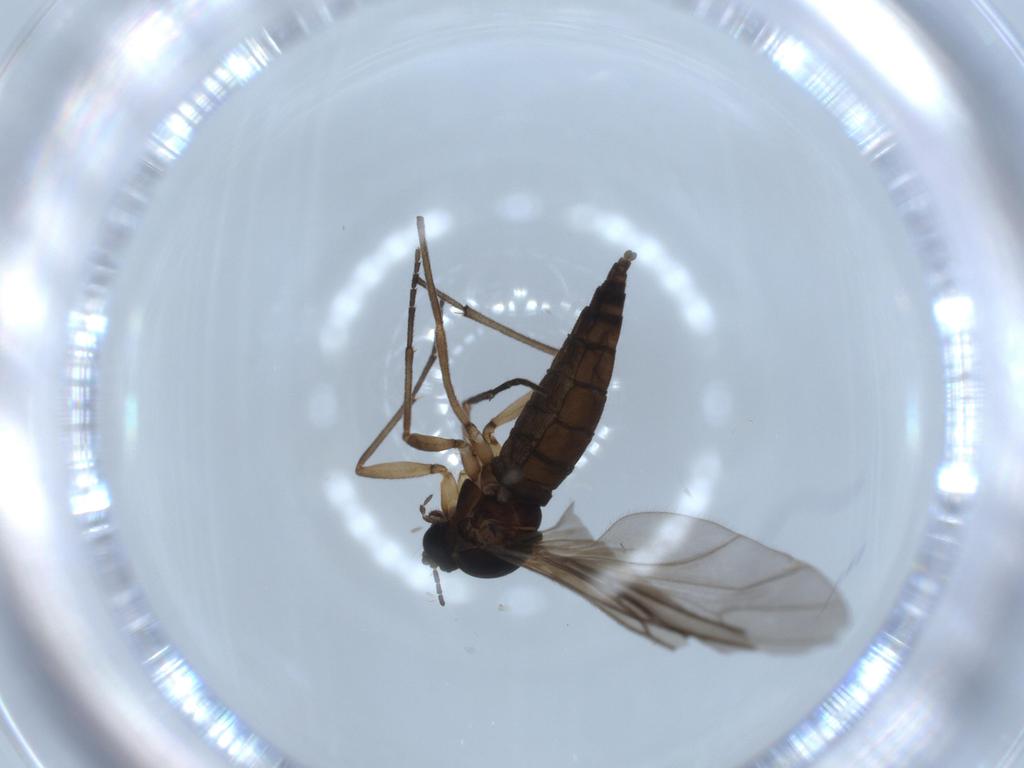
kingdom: Animalia
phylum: Arthropoda
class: Insecta
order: Diptera
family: Sciaridae
